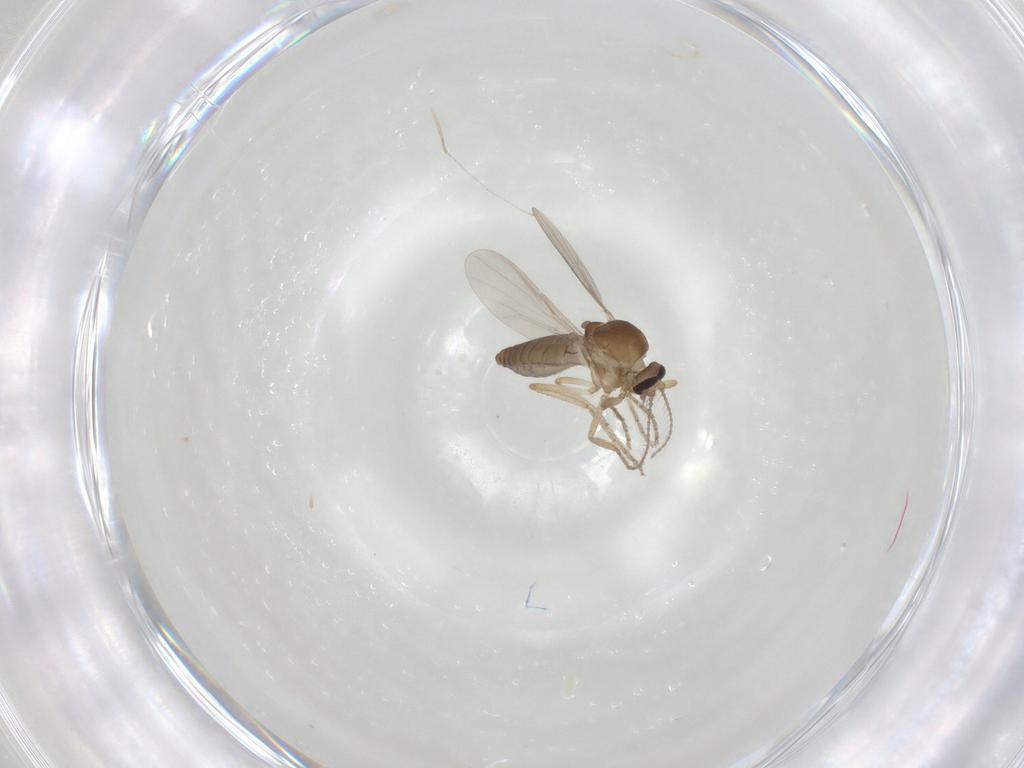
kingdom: Animalia
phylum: Arthropoda
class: Insecta
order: Diptera
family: Ceratopogonidae
